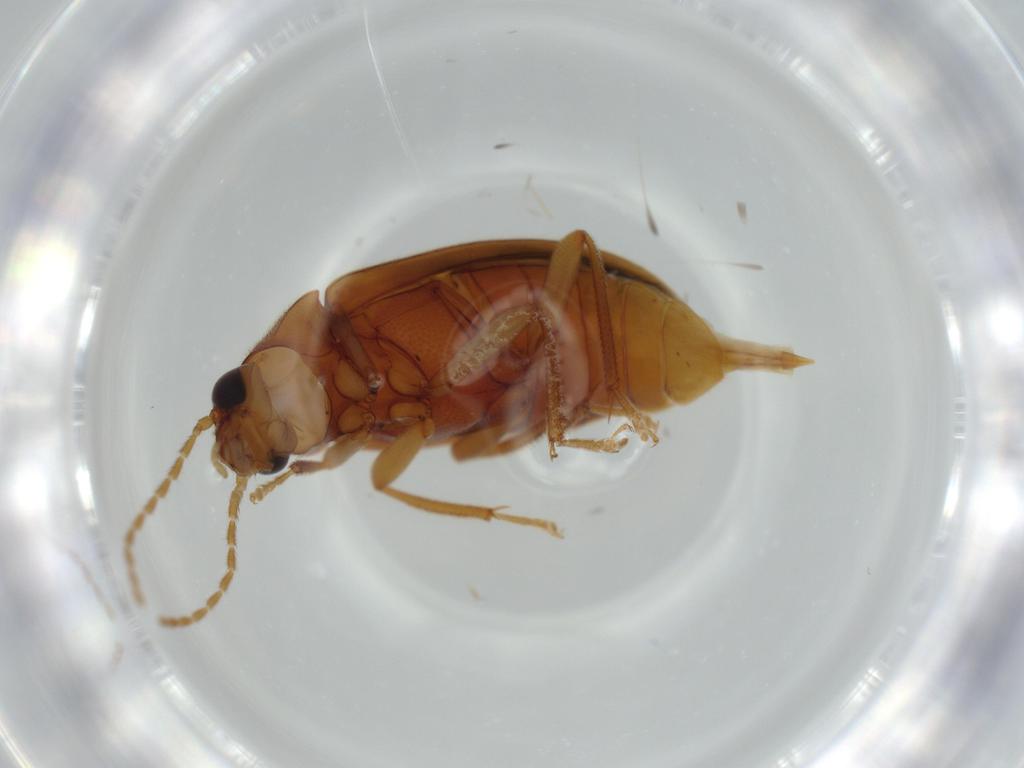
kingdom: Animalia
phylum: Arthropoda
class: Insecta
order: Coleoptera
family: Ptilodactylidae
